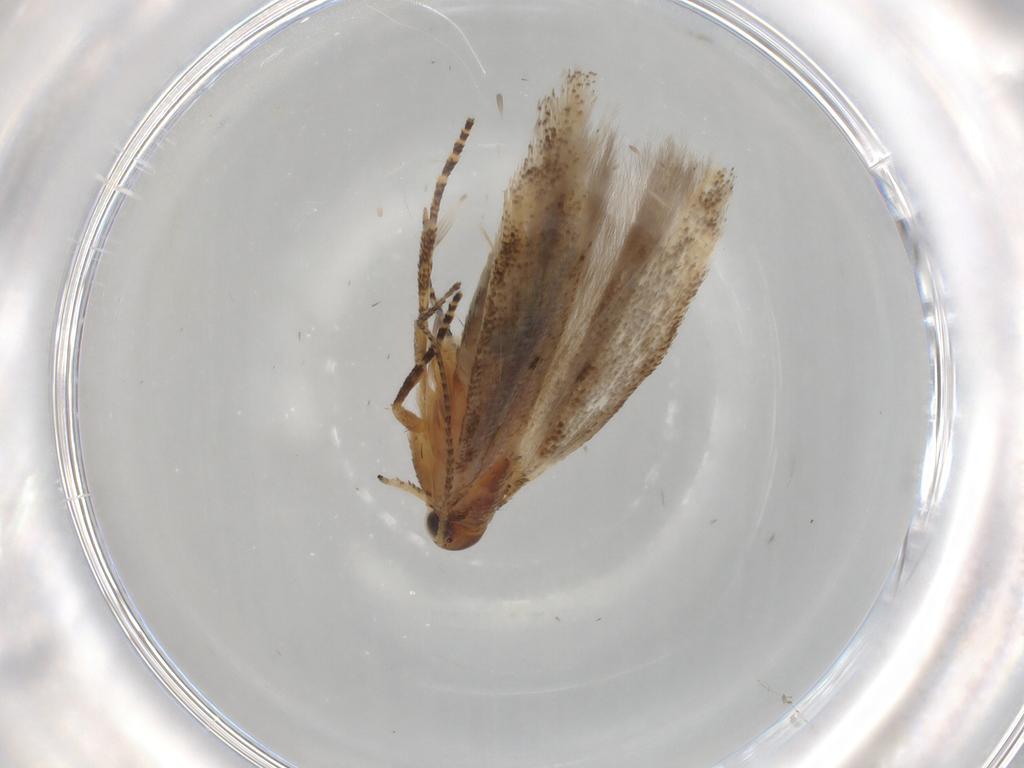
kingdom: Animalia
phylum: Arthropoda
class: Insecta
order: Lepidoptera
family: Gelechiidae
